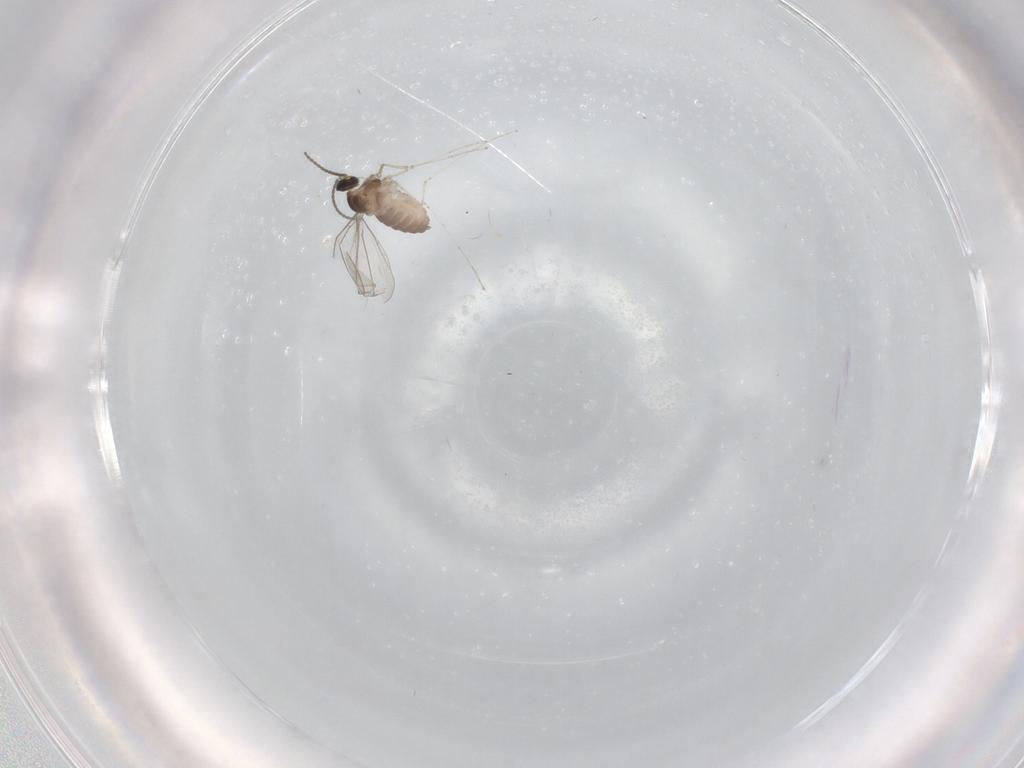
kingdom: Animalia
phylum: Arthropoda
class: Insecta
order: Diptera
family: Cecidomyiidae
